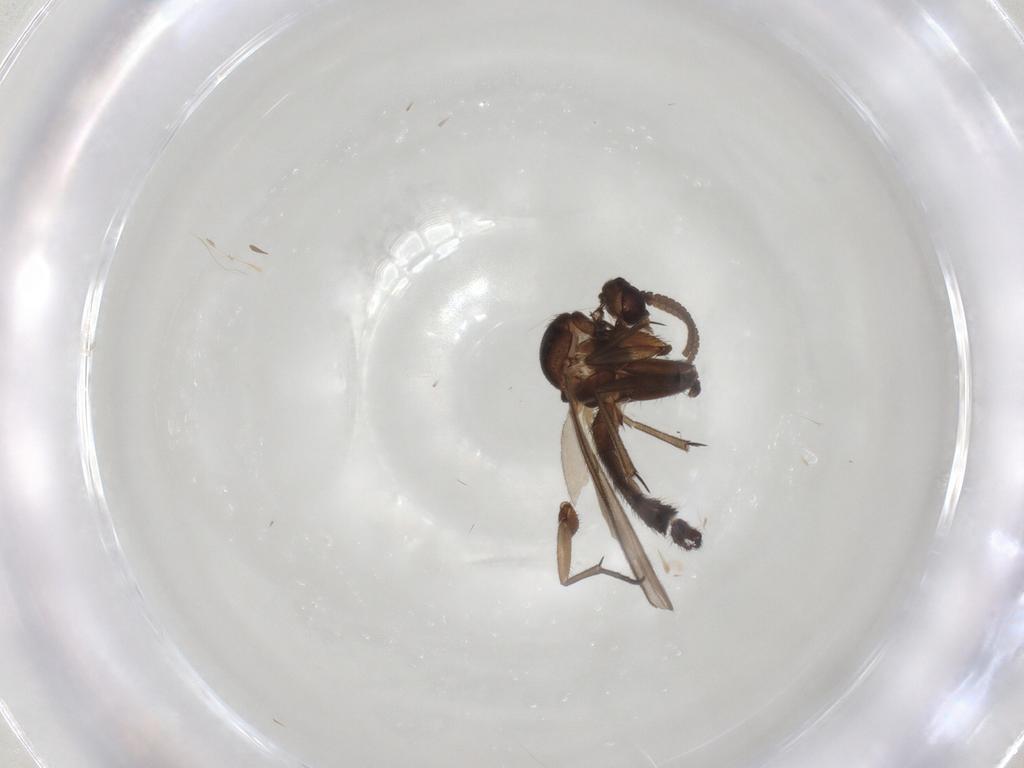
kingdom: Animalia
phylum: Arthropoda
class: Insecta
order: Diptera
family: Keroplatidae
